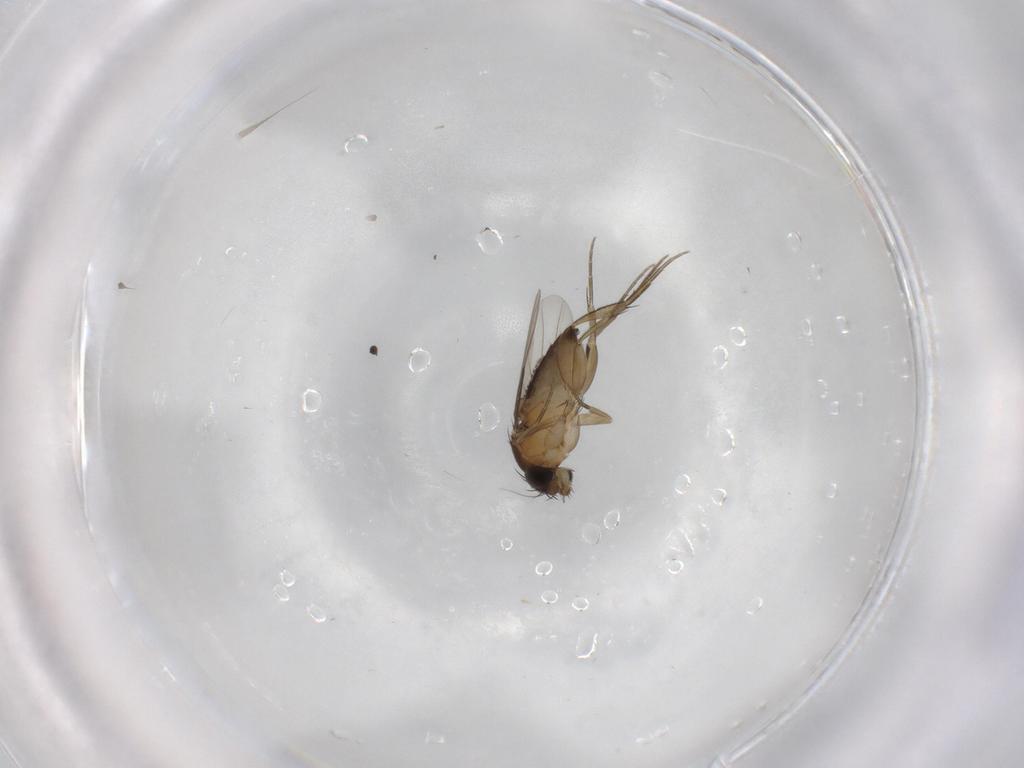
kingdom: Animalia
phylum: Arthropoda
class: Insecta
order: Diptera
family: Phoridae
